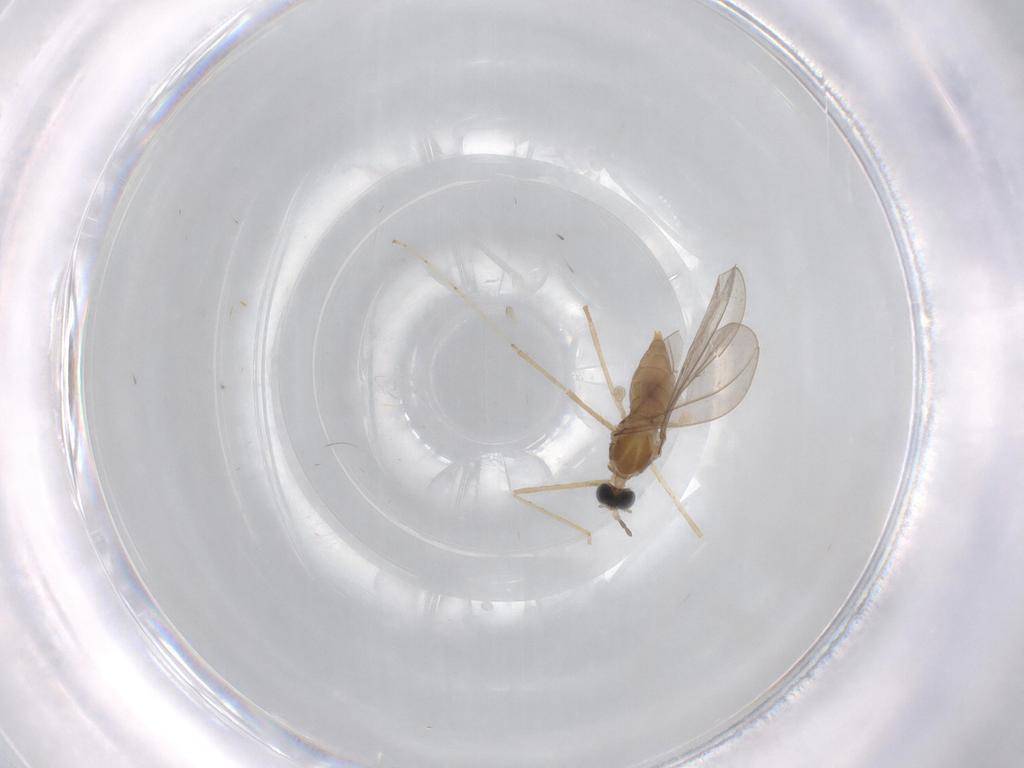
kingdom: Animalia
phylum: Arthropoda
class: Insecta
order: Diptera
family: Cecidomyiidae
